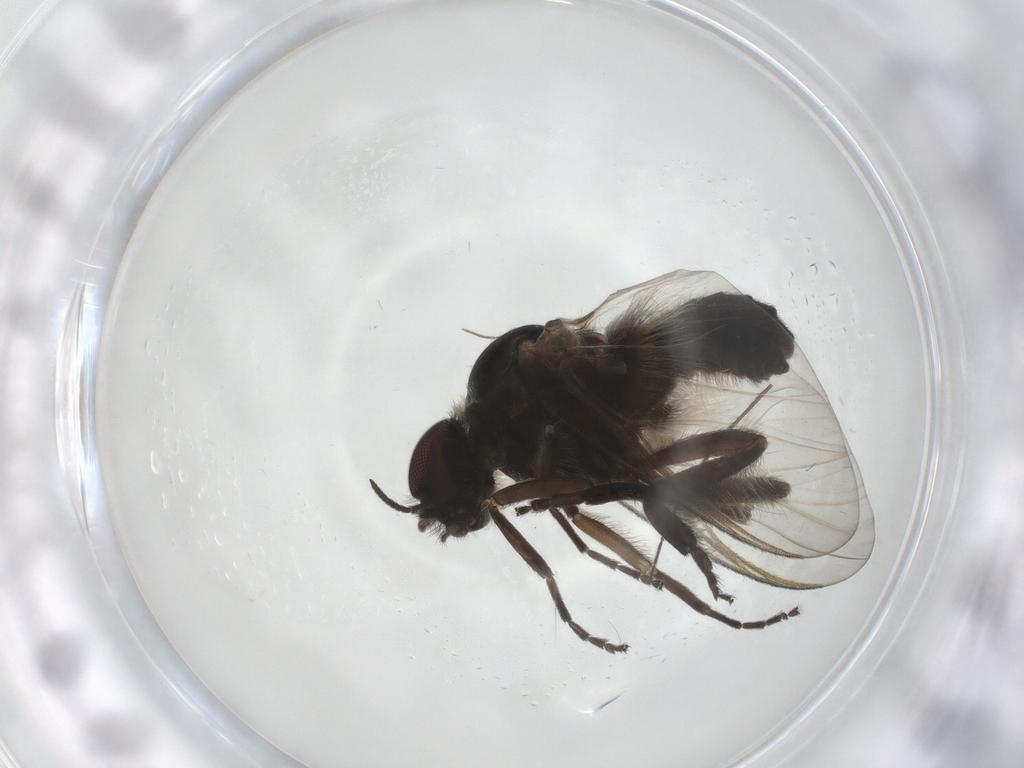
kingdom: Animalia
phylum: Arthropoda
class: Insecta
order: Diptera
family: Simuliidae
